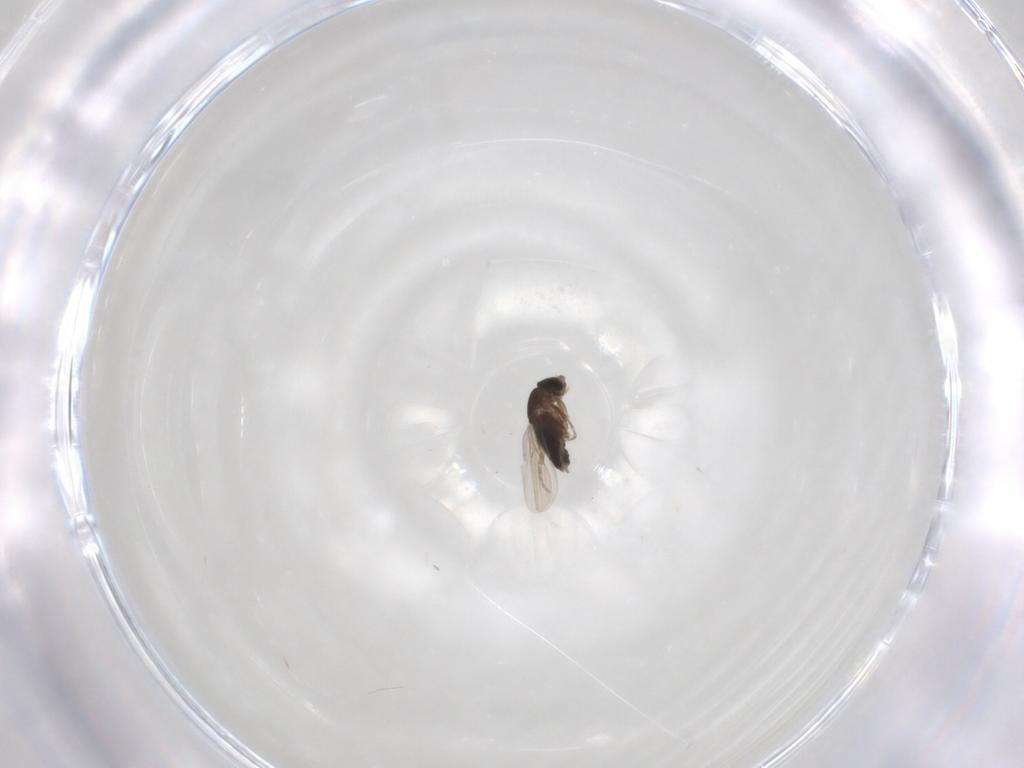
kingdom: Animalia
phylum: Arthropoda
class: Insecta
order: Diptera
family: Phoridae
